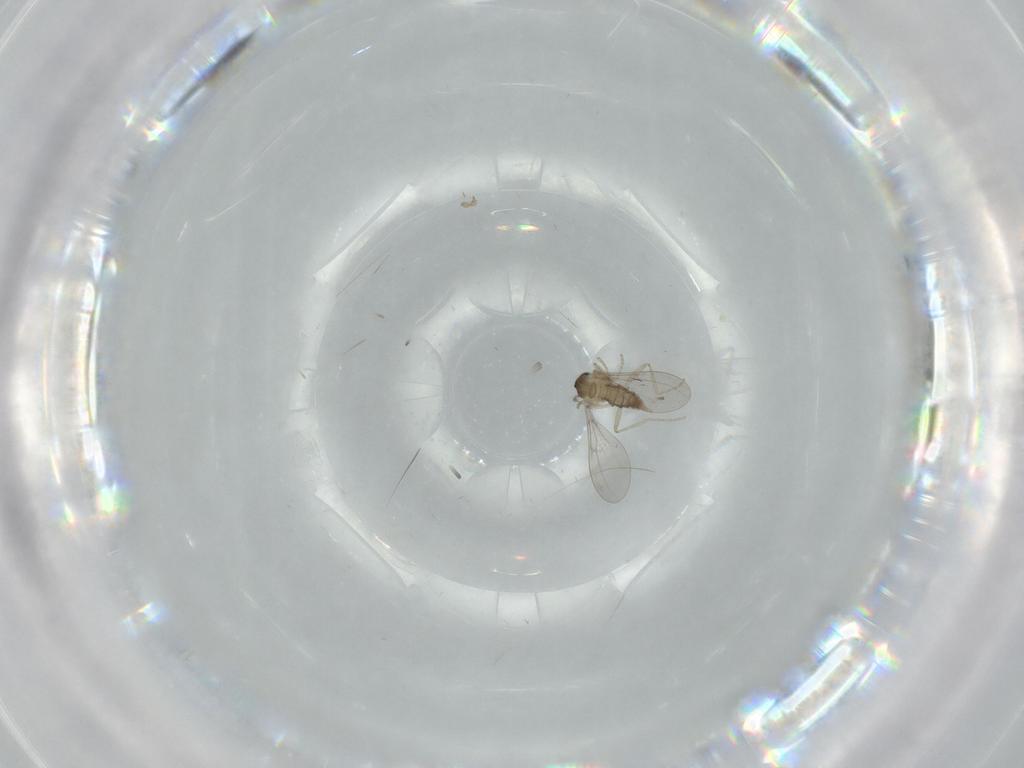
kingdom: Animalia
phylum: Arthropoda
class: Insecta
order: Diptera
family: Cecidomyiidae
